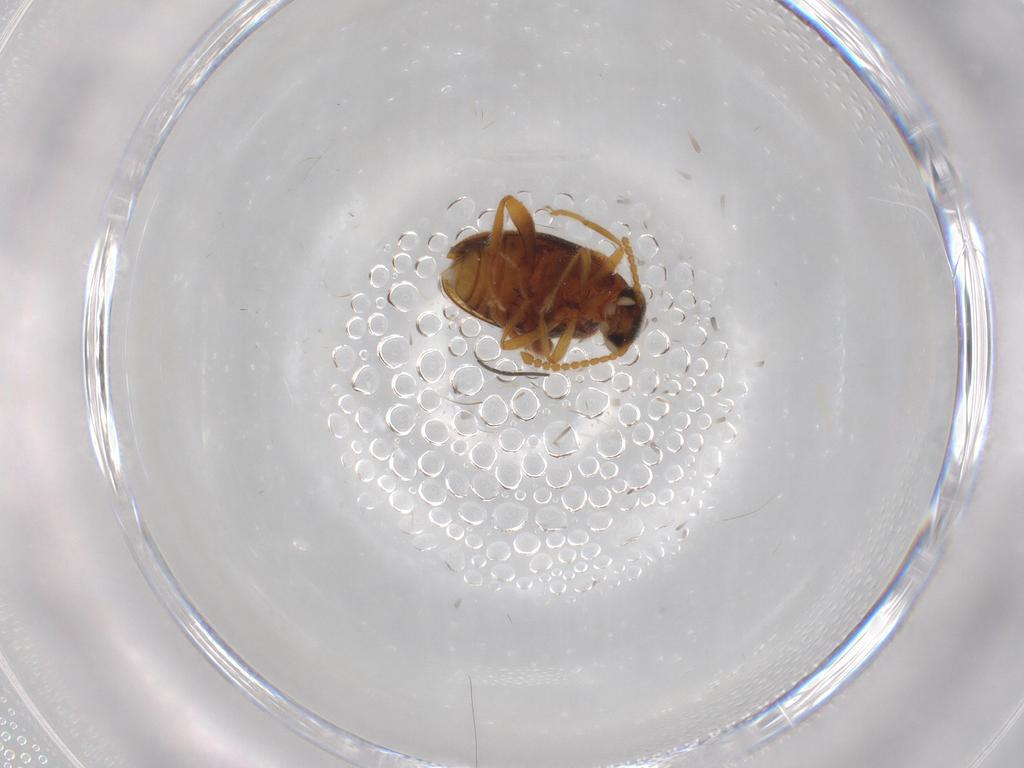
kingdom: Animalia
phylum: Arthropoda
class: Insecta
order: Coleoptera
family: Aderidae
